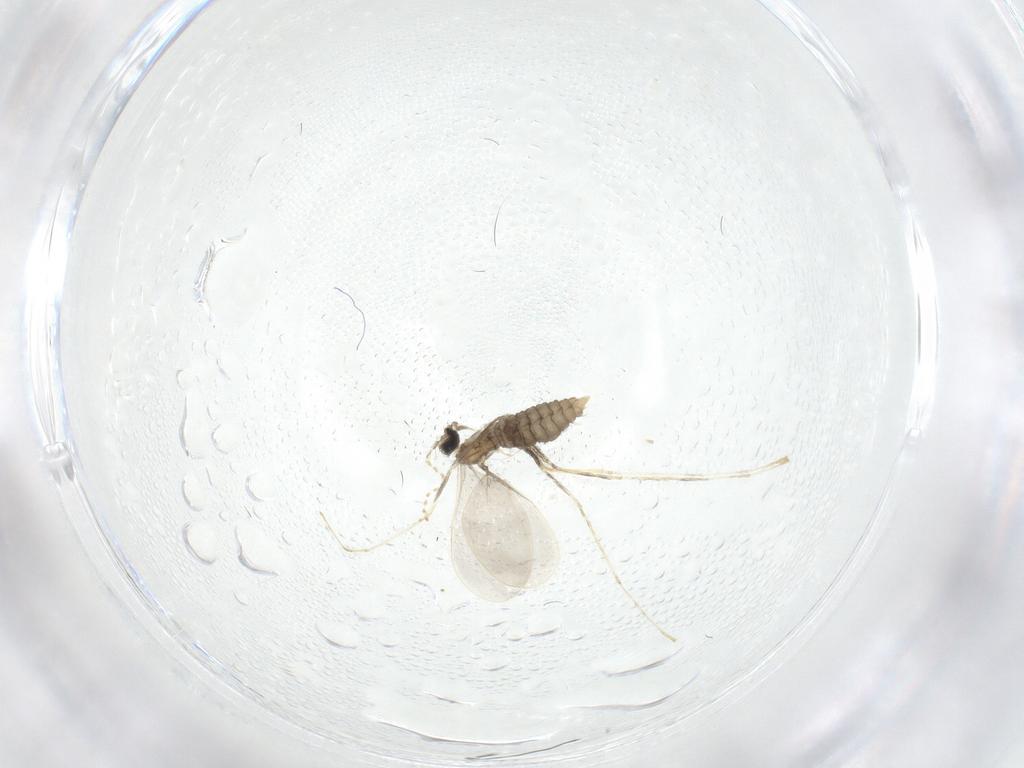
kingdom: Animalia
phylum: Arthropoda
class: Insecta
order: Diptera
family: Cecidomyiidae
